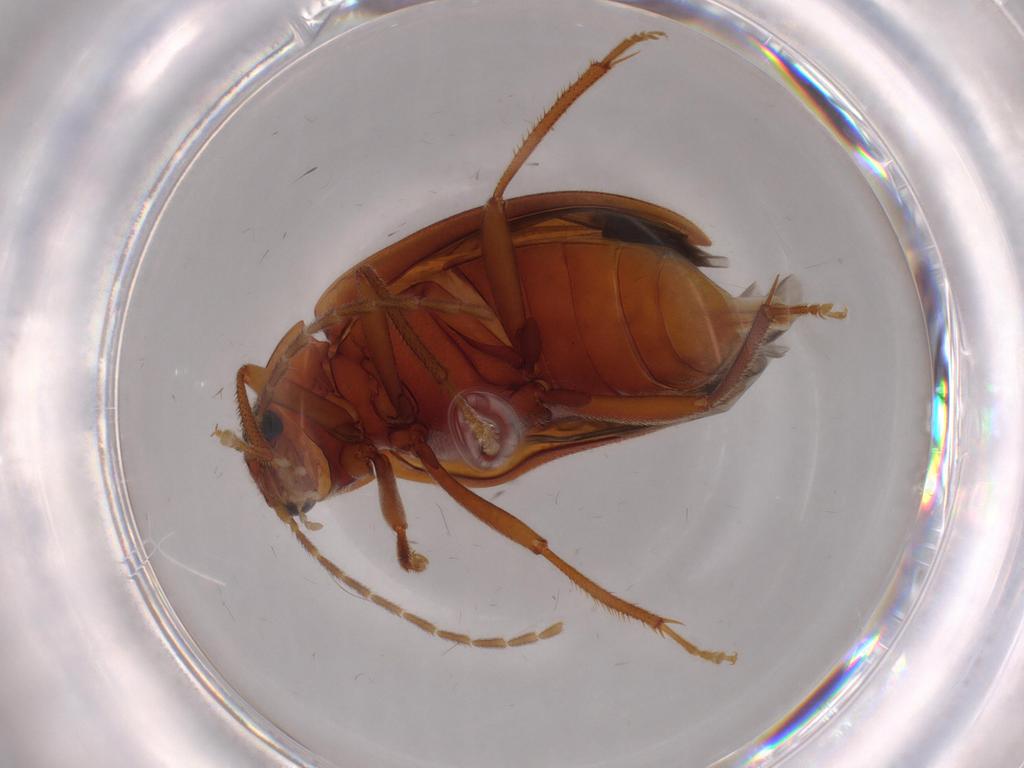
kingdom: Animalia
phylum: Arthropoda
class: Insecta
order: Coleoptera
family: Ptilodactylidae
